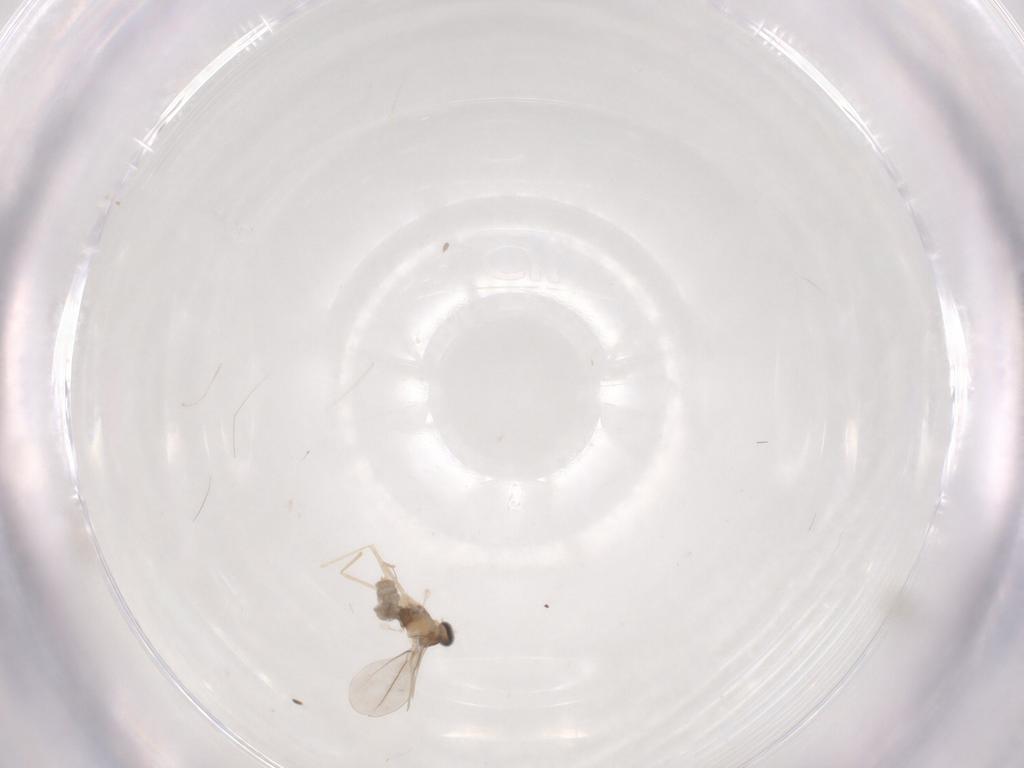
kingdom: Animalia
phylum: Arthropoda
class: Insecta
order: Diptera
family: Cecidomyiidae
